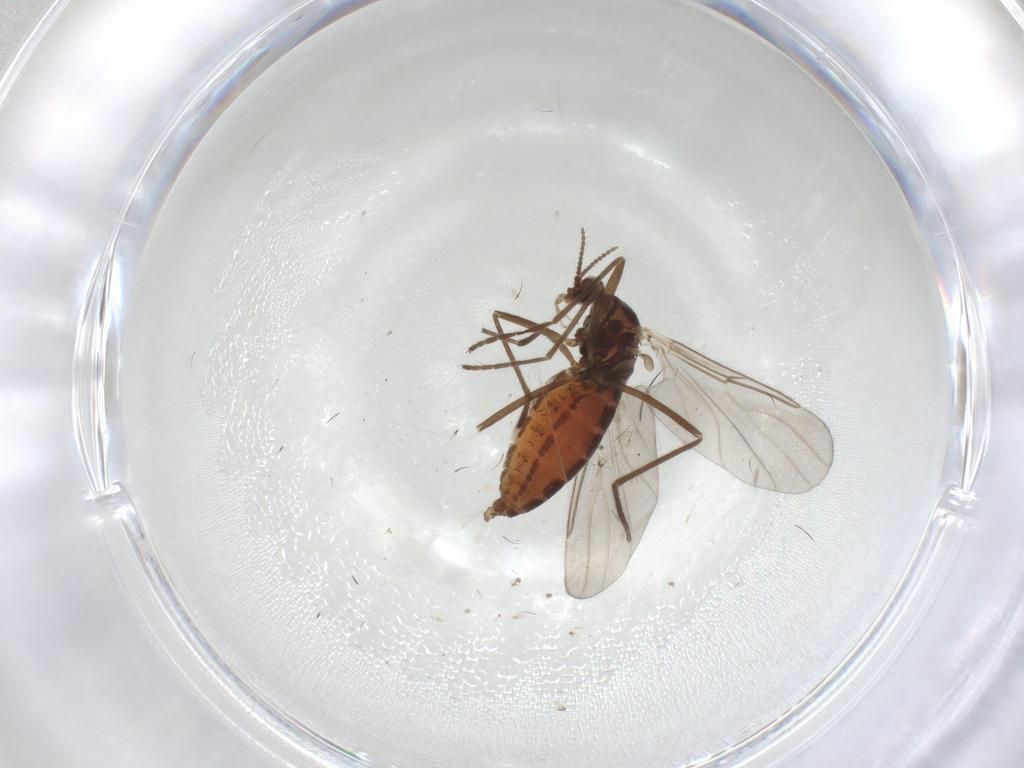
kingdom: Animalia
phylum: Arthropoda
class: Insecta
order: Diptera
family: Cecidomyiidae
